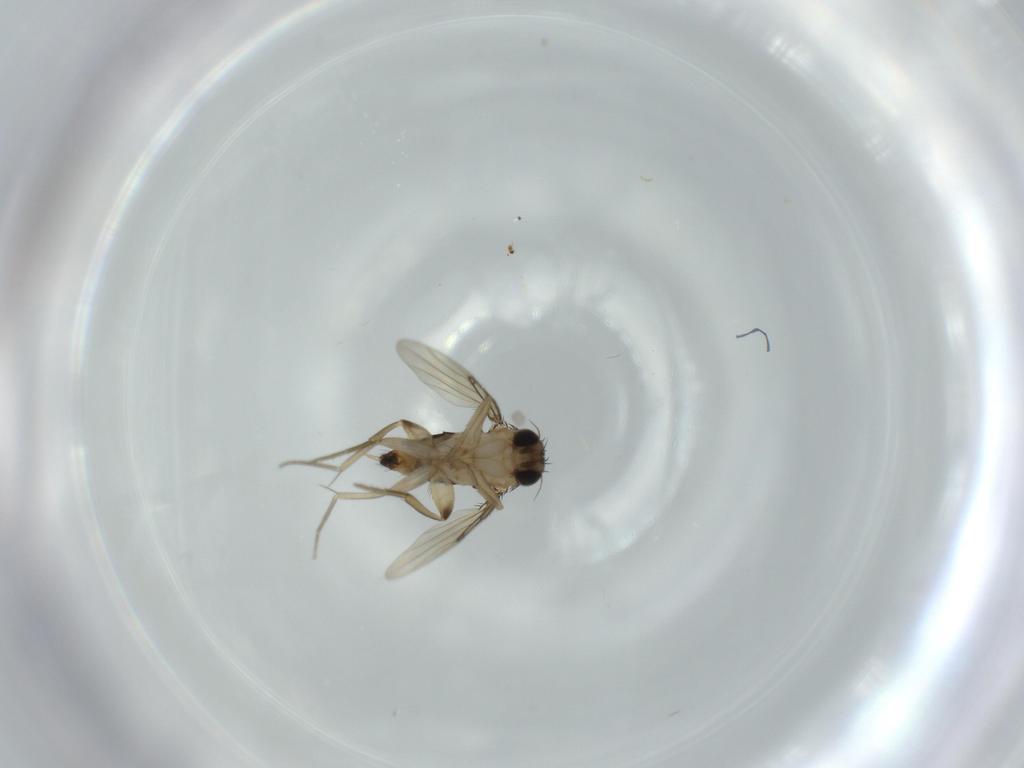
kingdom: Animalia
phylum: Arthropoda
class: Insecta
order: Diptera
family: Phoridae
